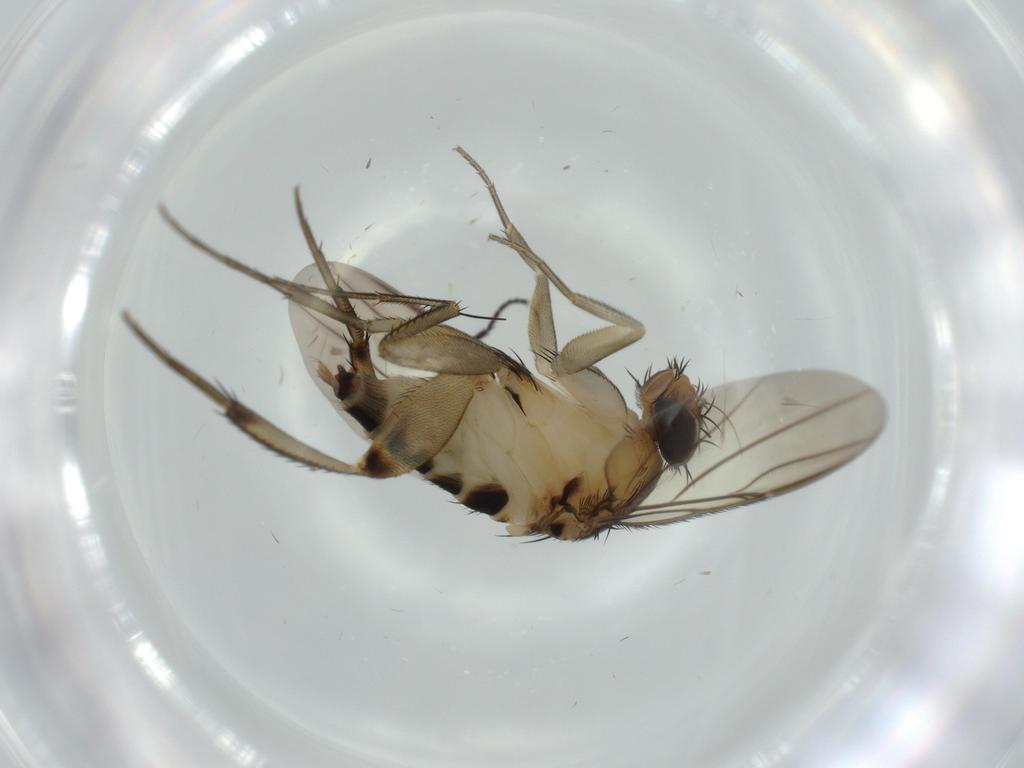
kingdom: Animalia
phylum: Arthropoda
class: Insecta
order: Diptera
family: Phoridae
